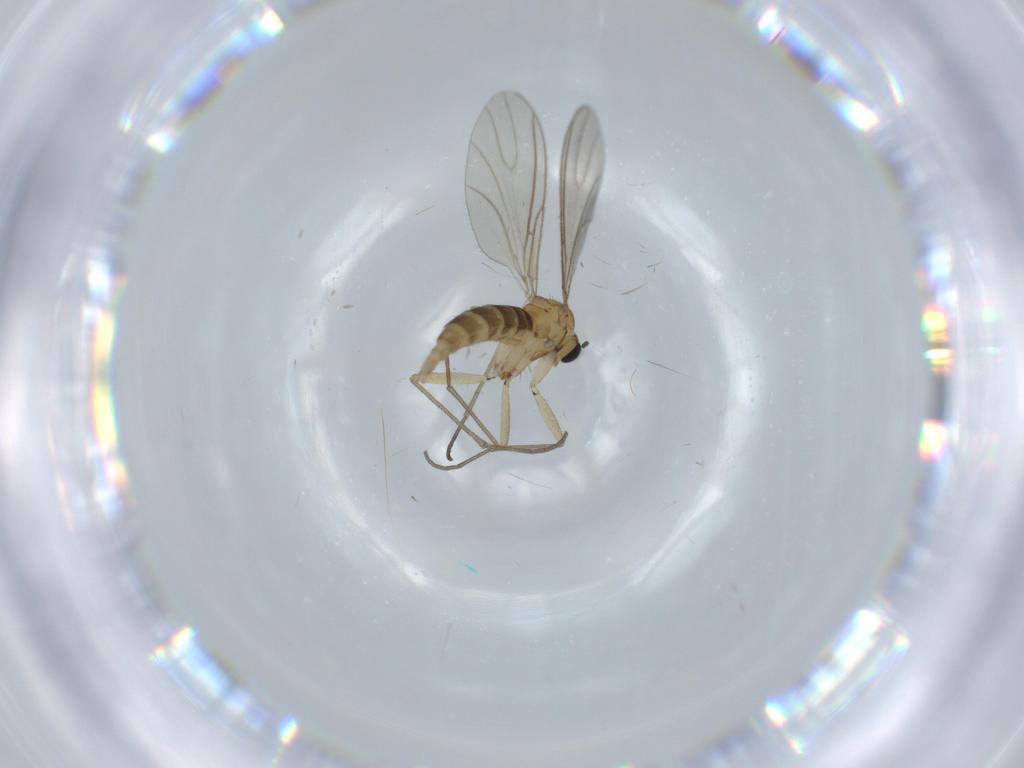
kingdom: Animalia
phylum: Arthropoda
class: Insecta
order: Diptera
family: Sciaridae
